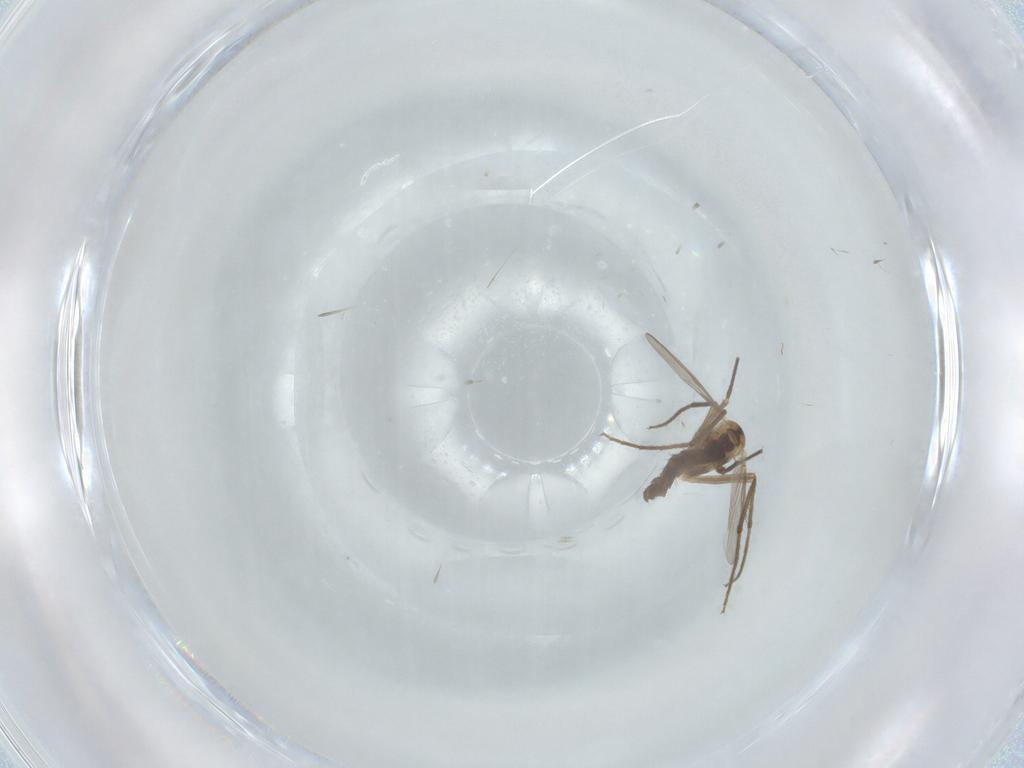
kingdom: Animalia
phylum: Arthropoda
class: Insecta
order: Diptera
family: Chironomidae
